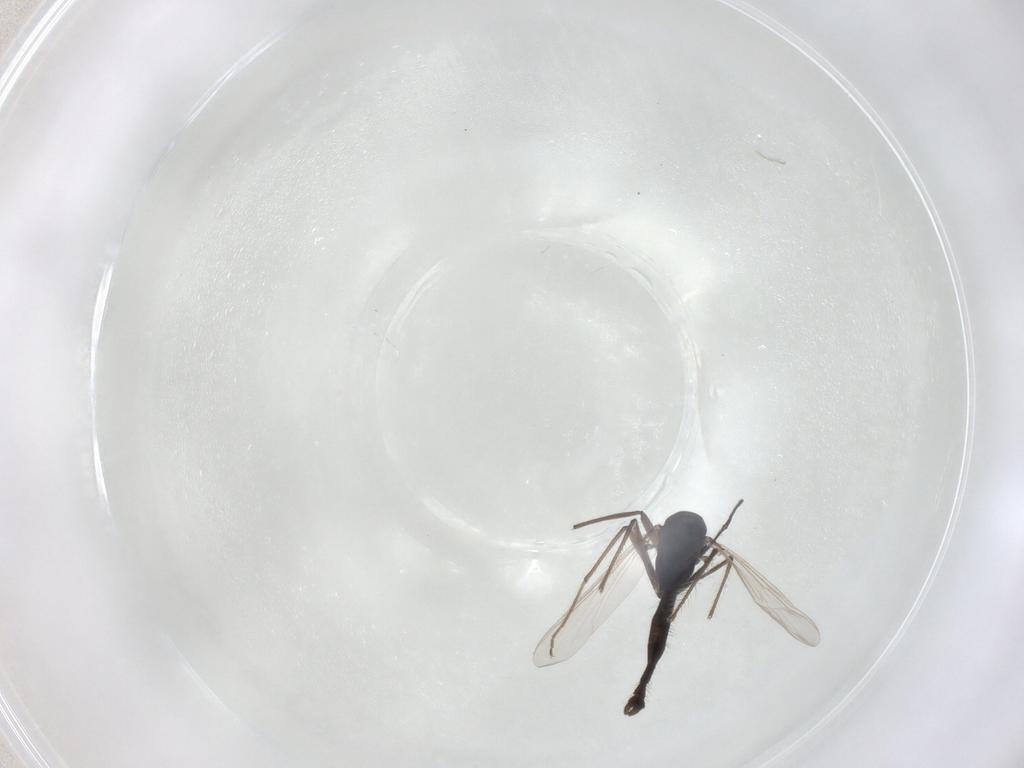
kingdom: Animalia
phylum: Arthropoda
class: Insecta
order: Diptera
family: Chironomidae
